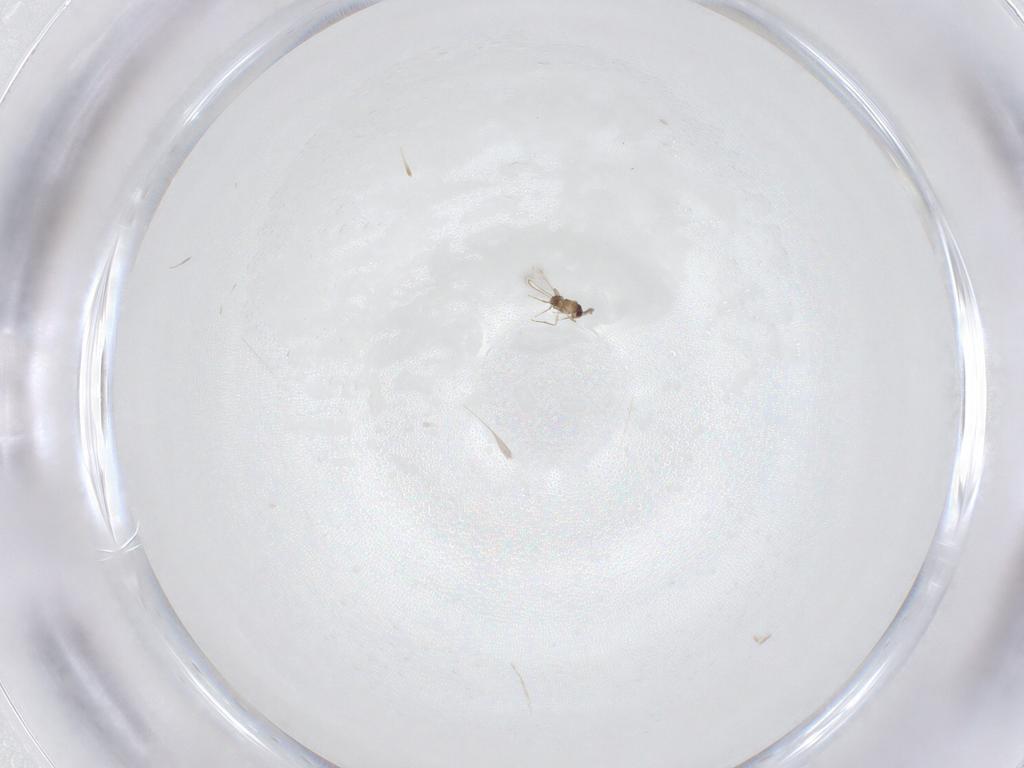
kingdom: Animalia
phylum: Arthropoda
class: Insecta
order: Hymenoptera
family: Mymaridae
